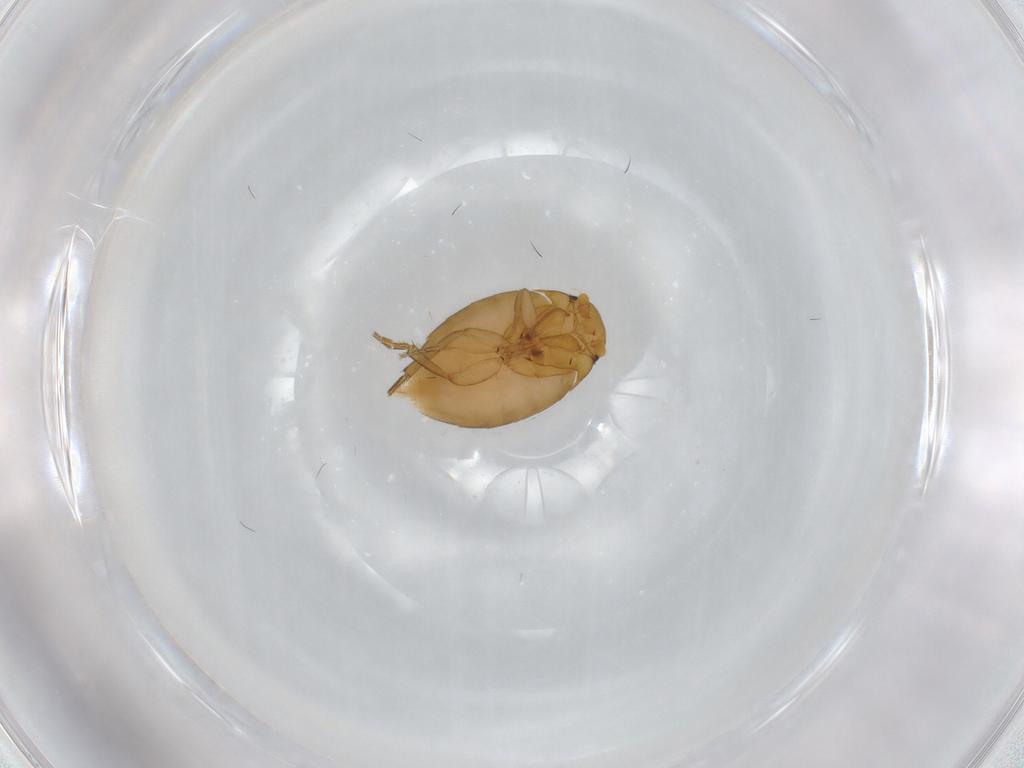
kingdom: Animalia
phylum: Arthropoda
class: Insecta
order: Diptera
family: Phoridae
